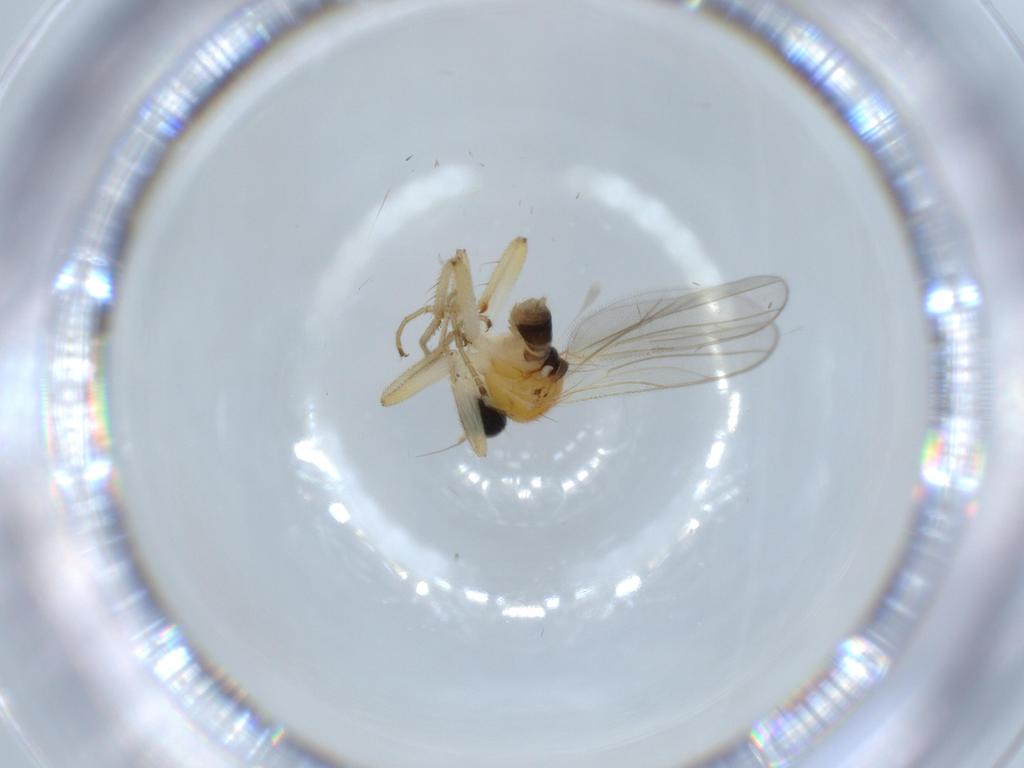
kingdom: Animalia
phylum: Arthropoda
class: Insecta
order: Diptera
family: Hybotidae
